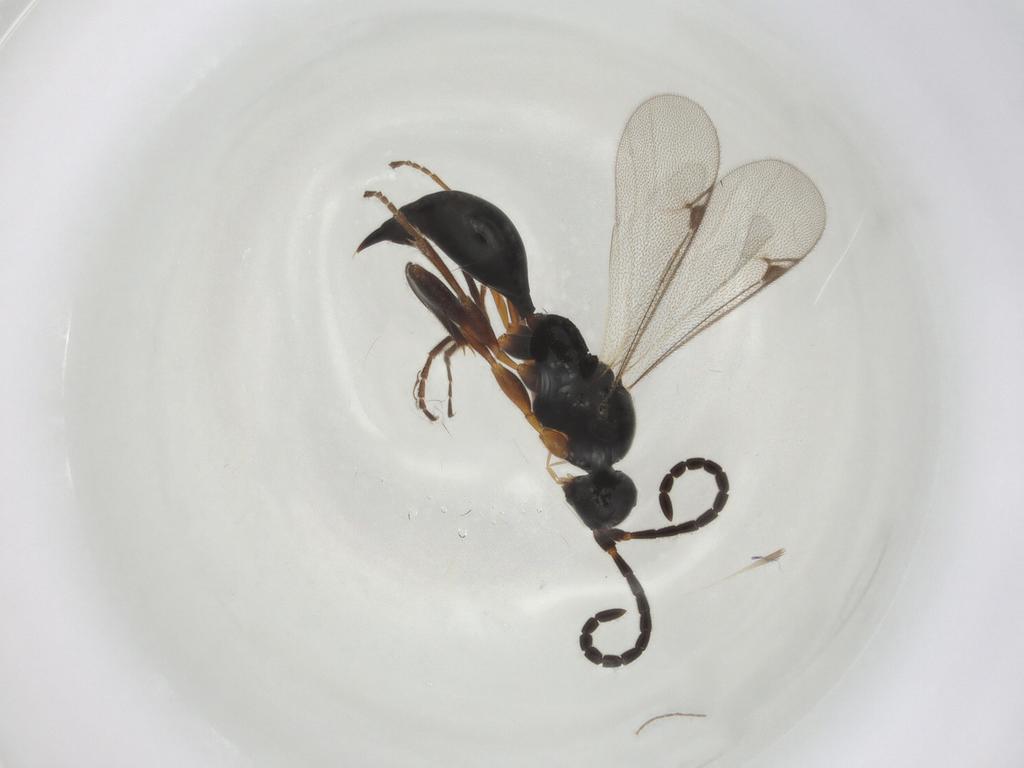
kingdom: Animalia
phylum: Arthropoda
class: Insecta
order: Hymenoptera
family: Proctotrupidae
